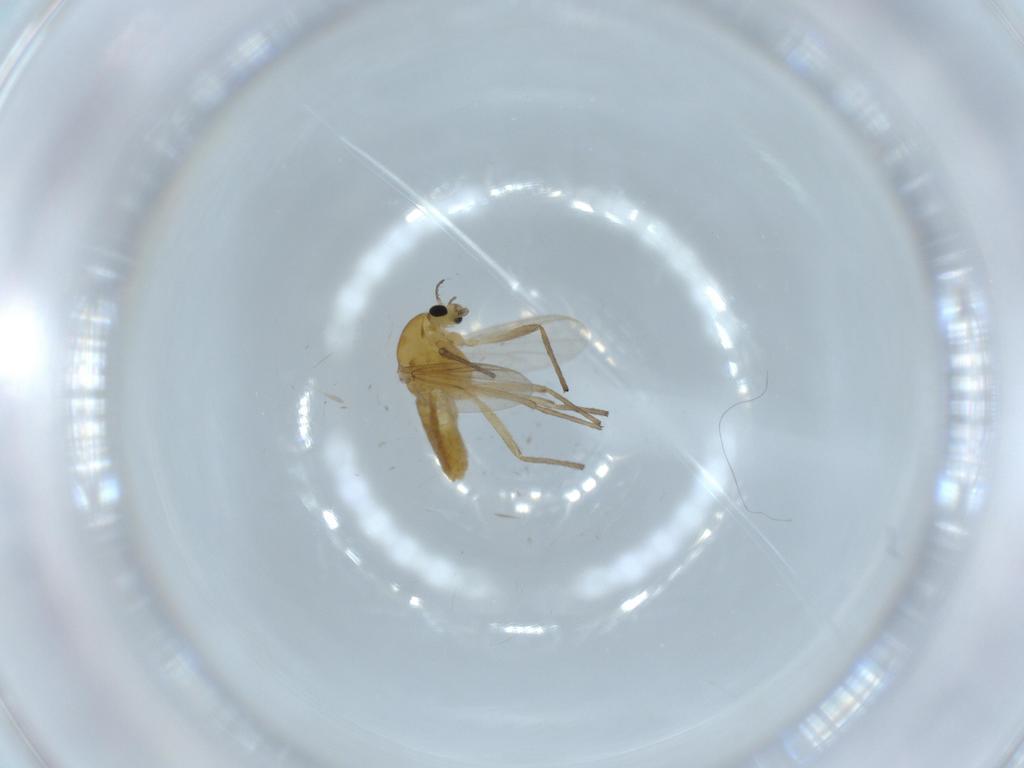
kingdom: Animalia
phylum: Arthropoda
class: Insecta
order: Diptera
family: Chironomidae
